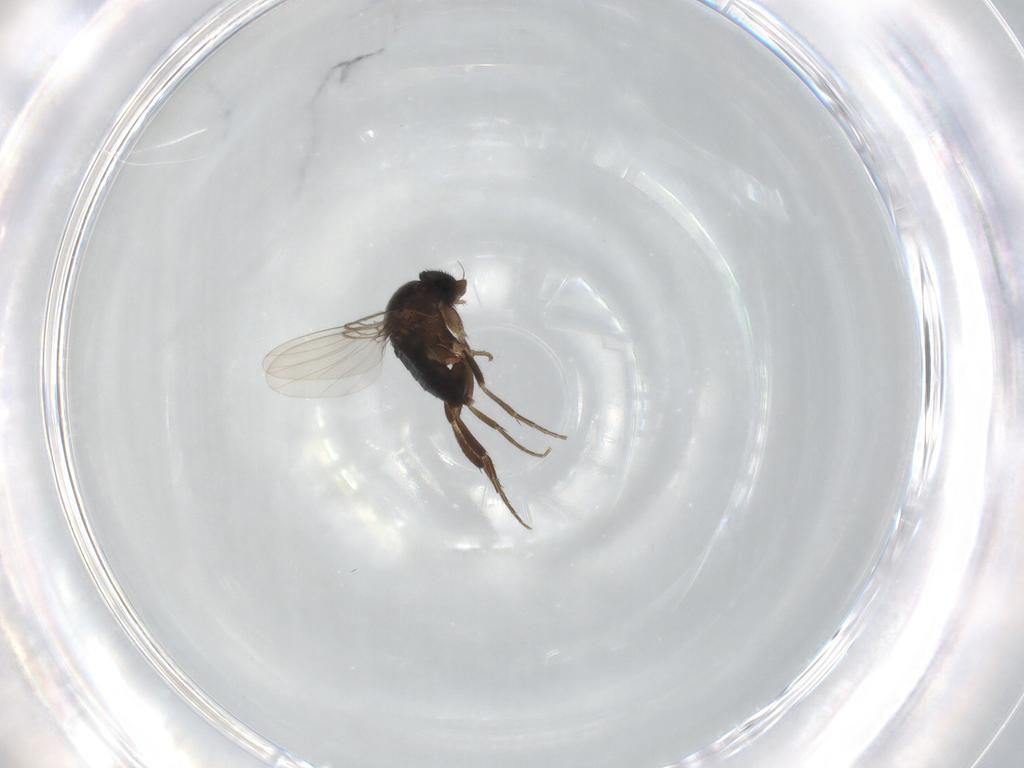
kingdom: Animalia
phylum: Arthropoda
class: Insecta
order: Diptera
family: Phoridae
